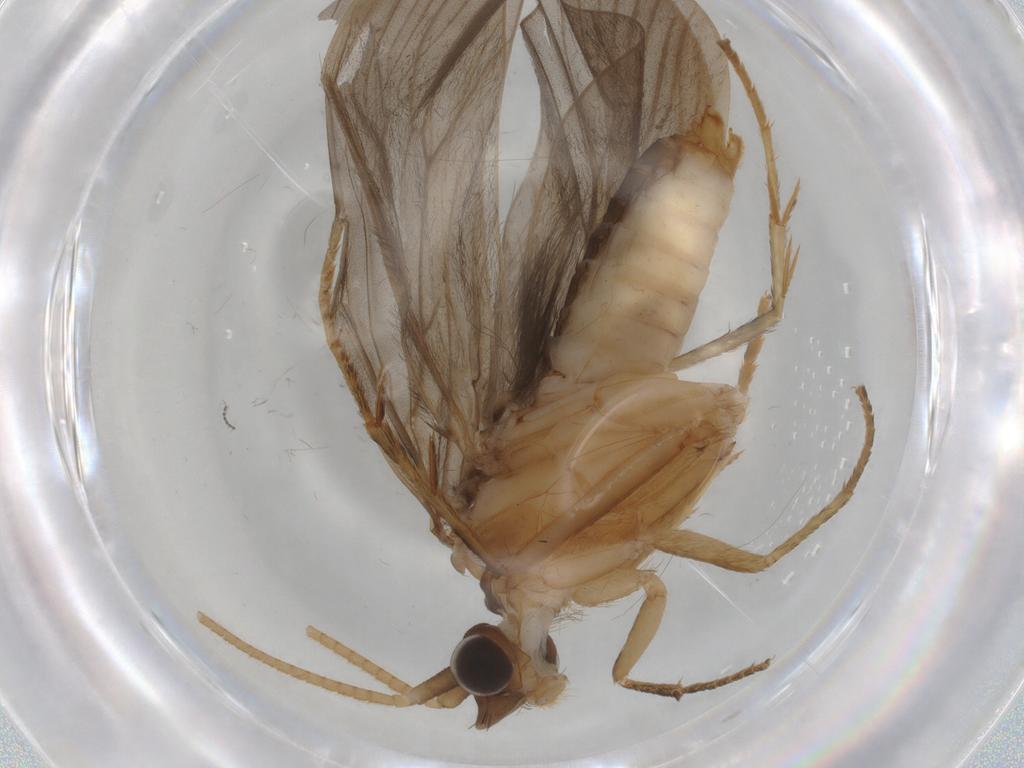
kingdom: Animalia
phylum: Arthropoda
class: Insecta
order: Trichoptera
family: Lepidostomatidae
